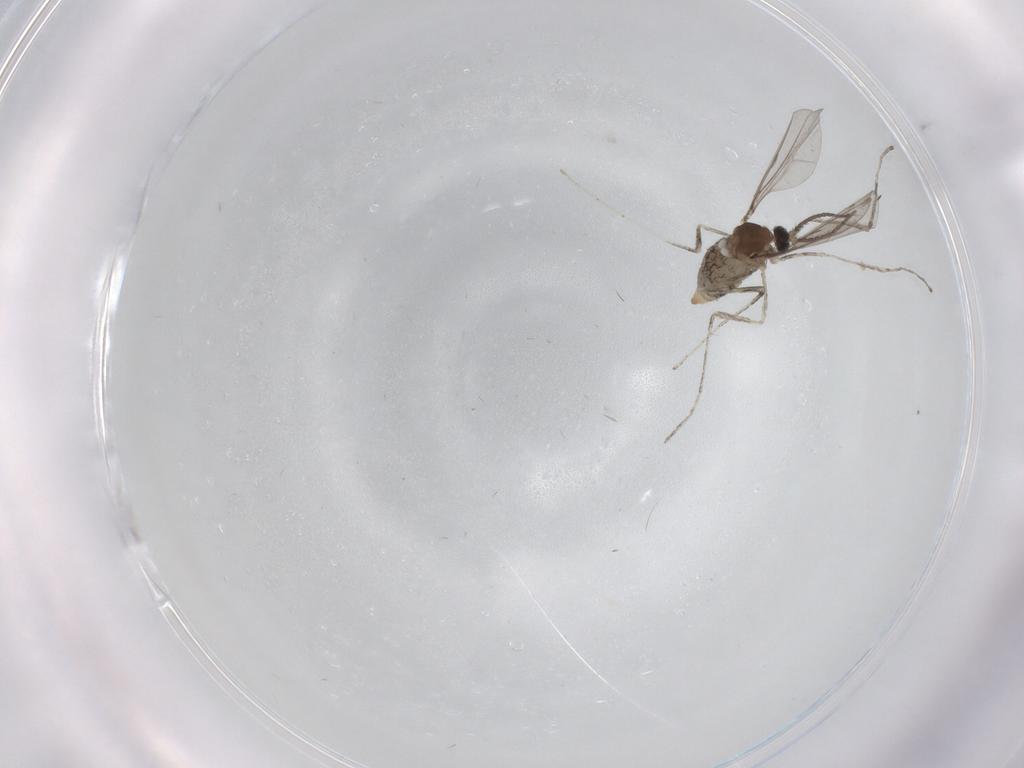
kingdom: Animalia
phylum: Arthropoda
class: Insecta
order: Diptera
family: Cecidomyiidae
